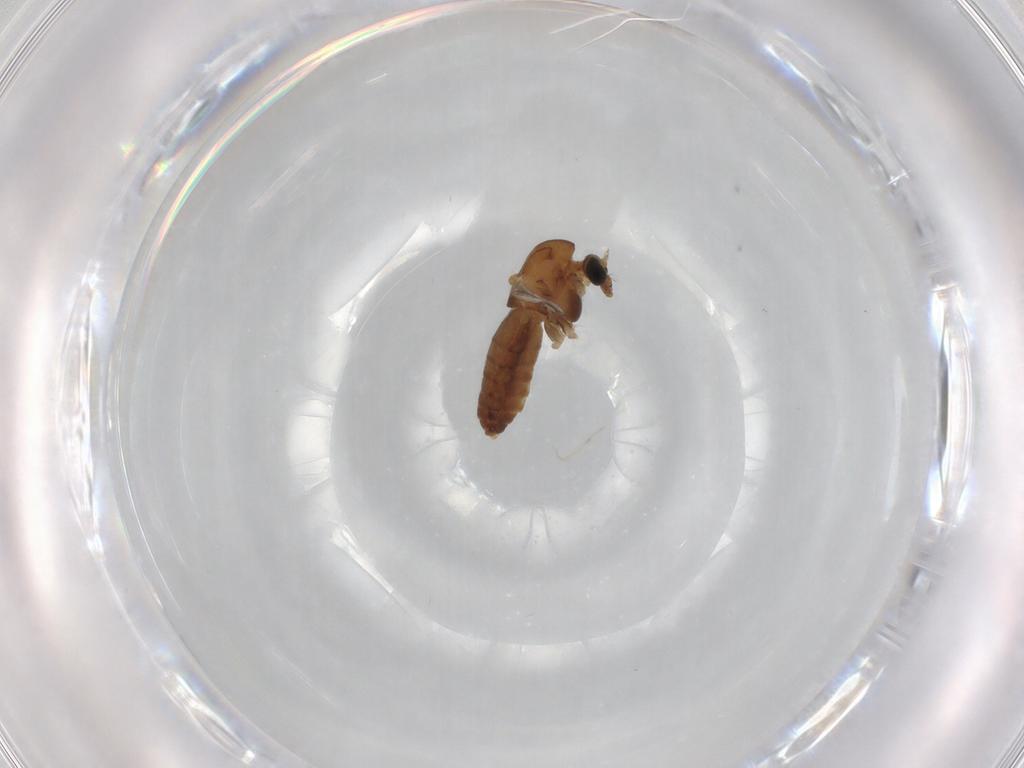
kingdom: Animalia
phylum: Arthropoda
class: Insecta
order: Diptera
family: Chironomidae
